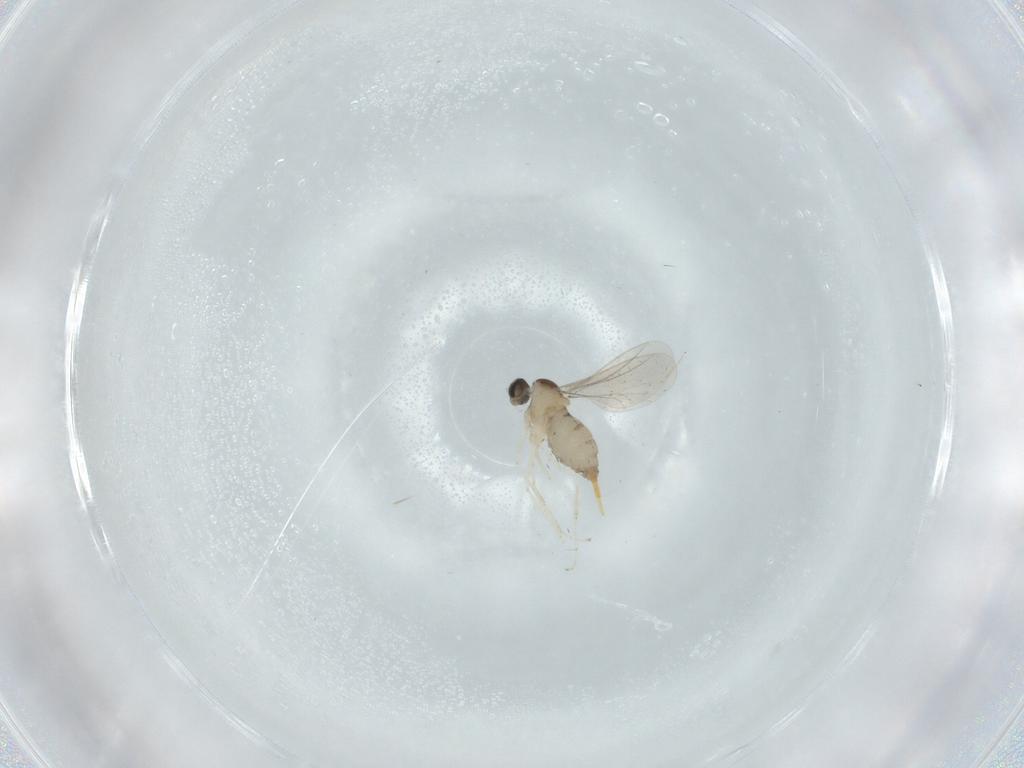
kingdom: Animalia
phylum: Arthropoda
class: Insecta
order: Diptera
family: Cecidomyiidae
